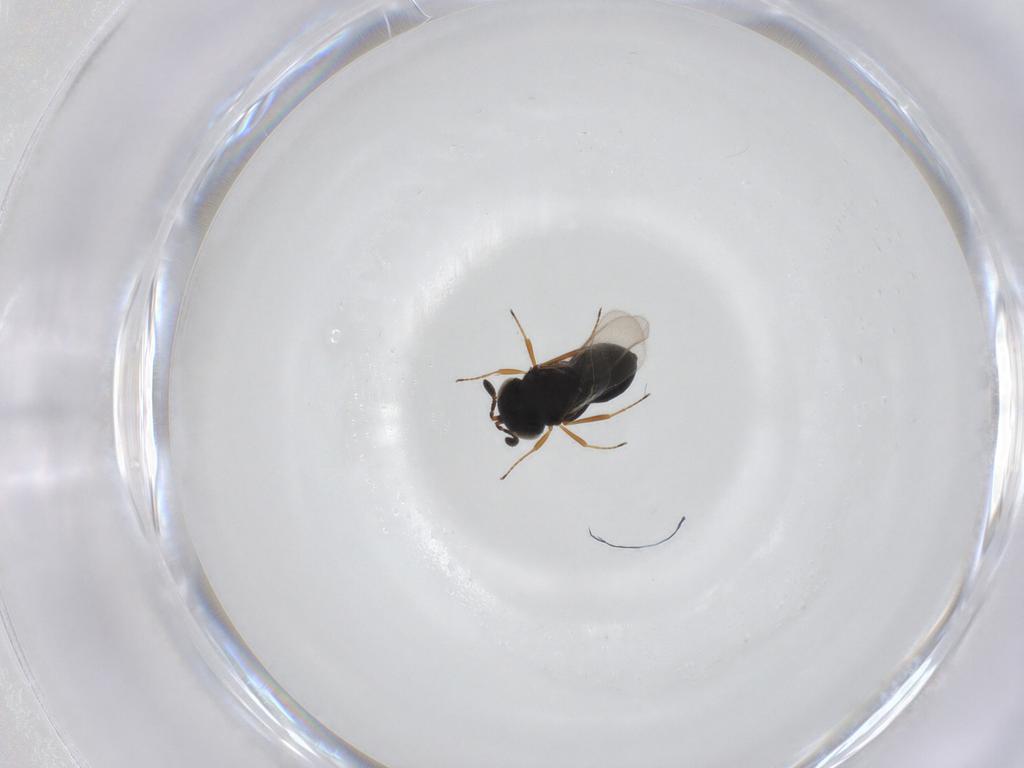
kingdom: Animalia
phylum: Arthropoda
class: Insecta
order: Hymenoptera
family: Scelionidae
